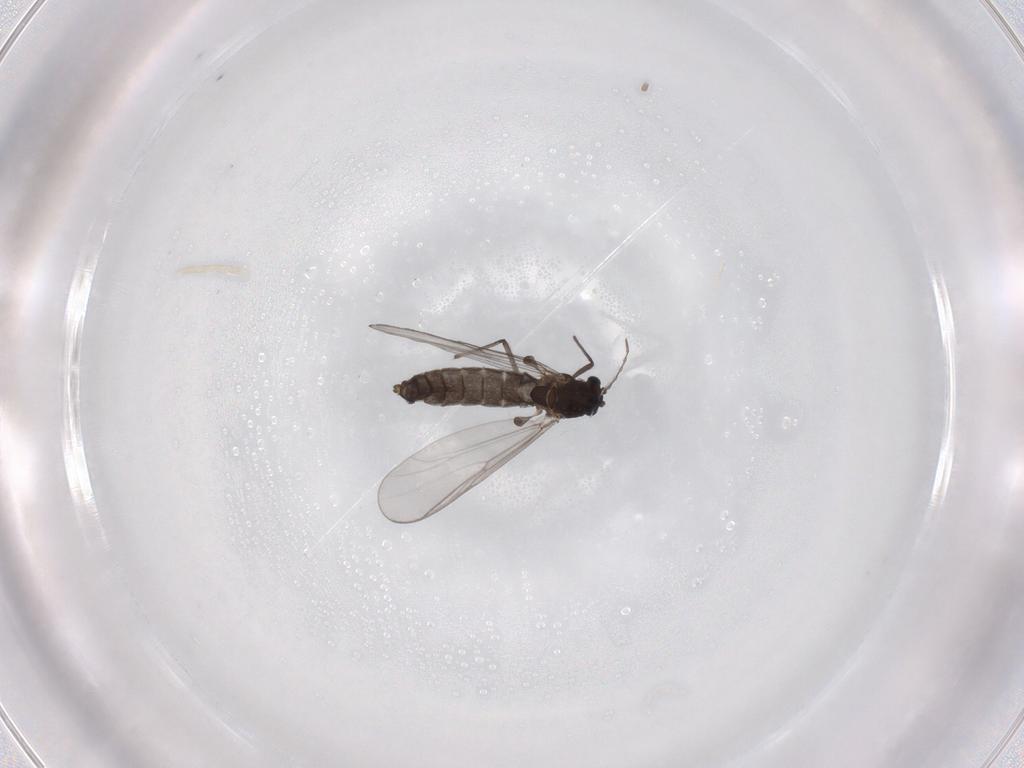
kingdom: Animalia
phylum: Arthropoda
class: Insecta
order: Diptera
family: Chironomidae
